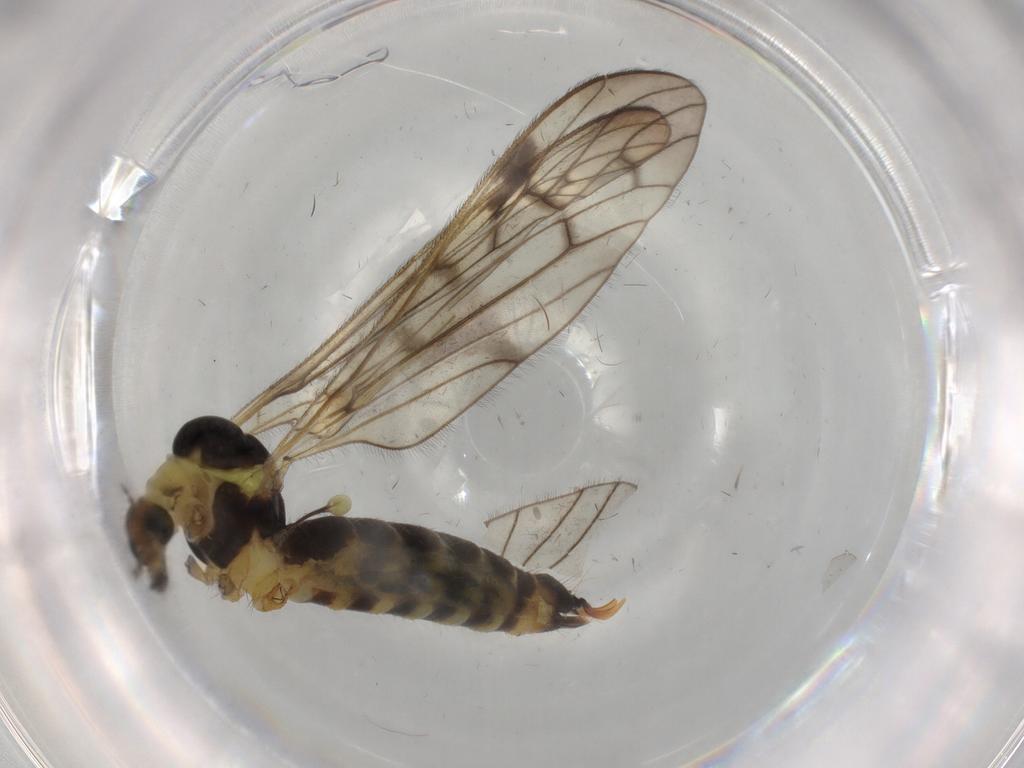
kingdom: Animalia
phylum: Arthropoda
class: Insecta
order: Diptera
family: Limoniidae
